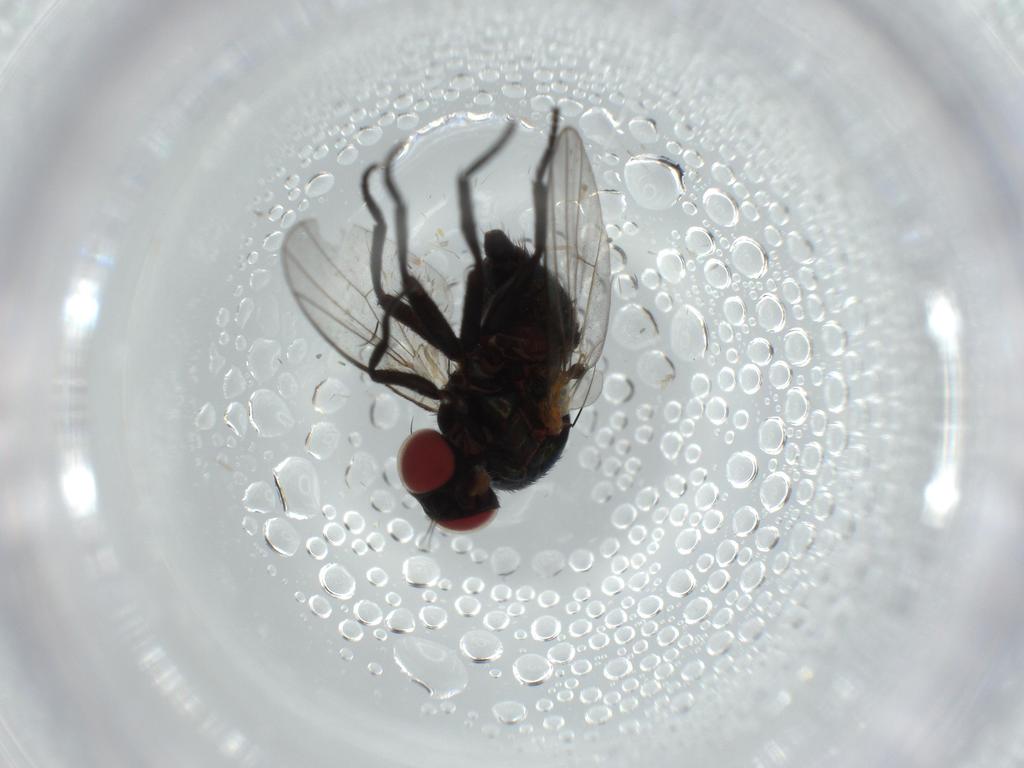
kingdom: Animalia
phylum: Arthropoda
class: Insecta
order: Diptera
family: Agromyzidae
